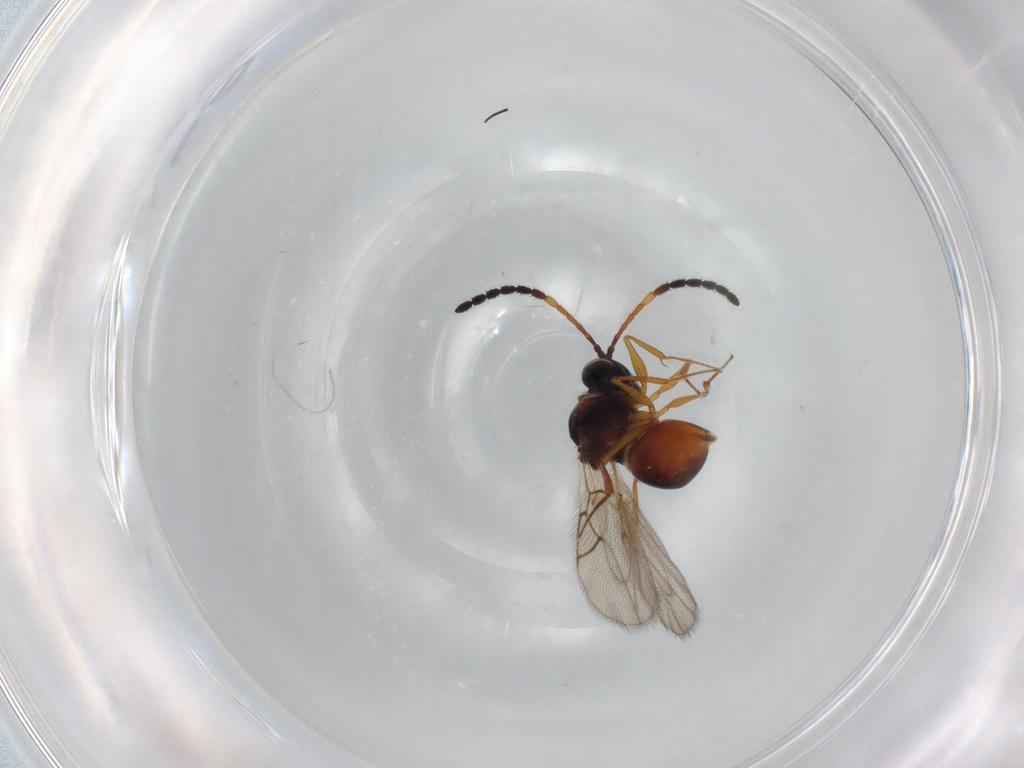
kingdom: Animalia
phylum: Arthropoda
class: Insecta
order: Hymenoptera
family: Figitidae
